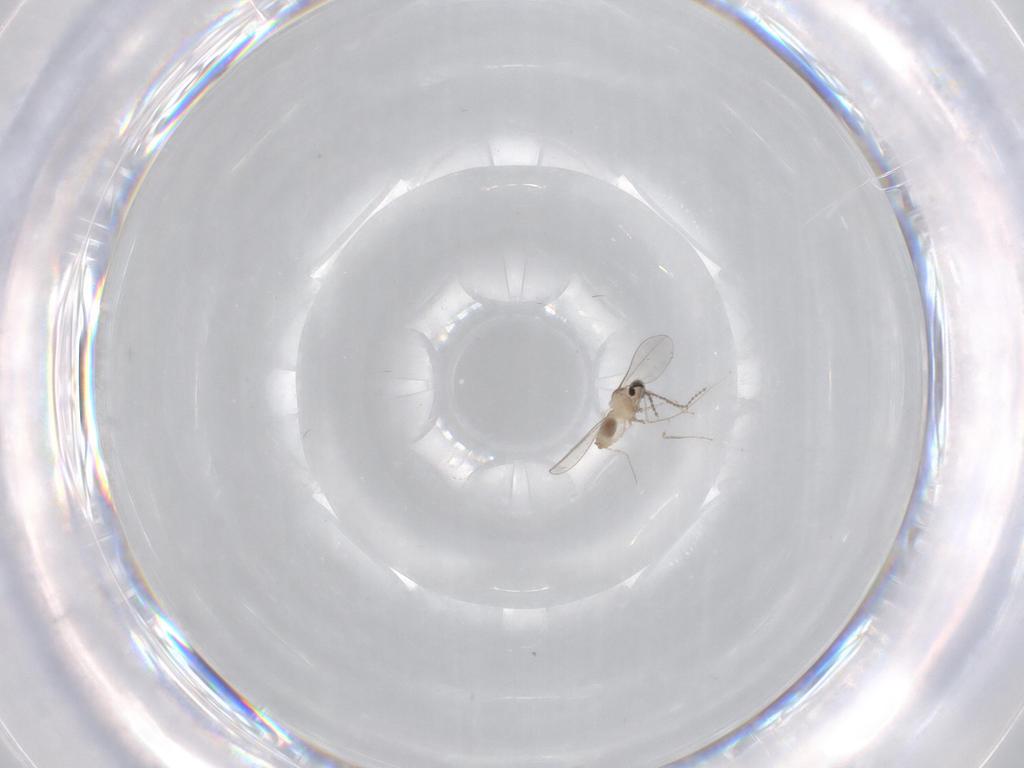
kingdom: Animalia
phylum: Arthropoda
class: Insecta
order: Diptera
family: Cecidomyiidae
